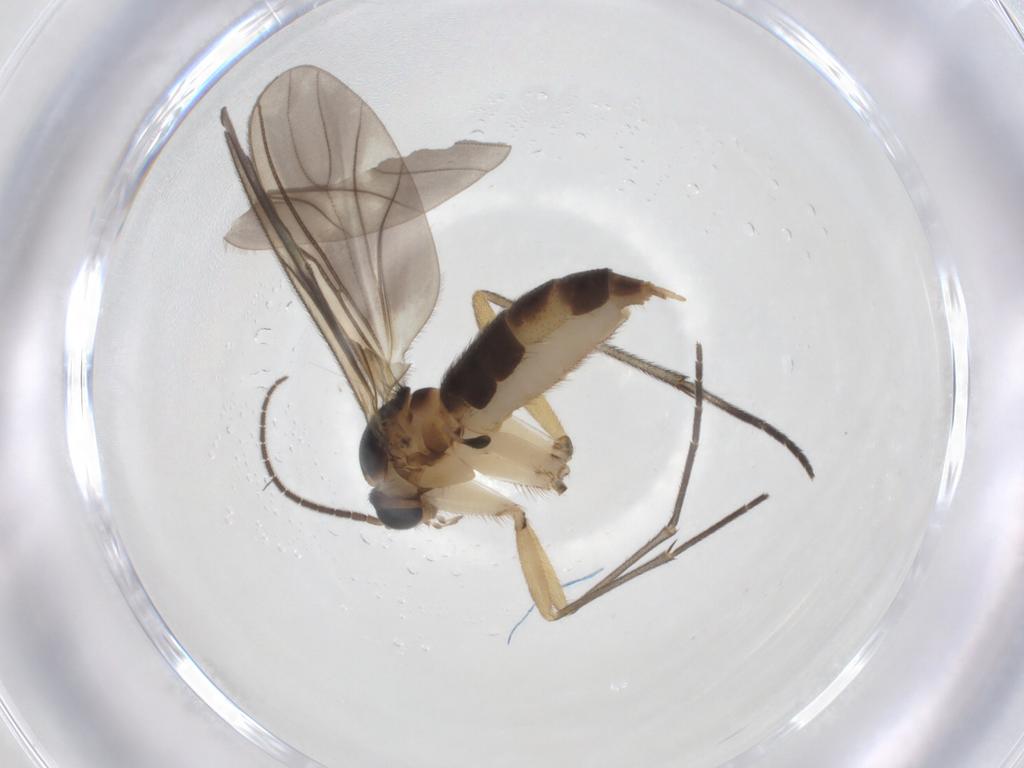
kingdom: Animalia
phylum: Arthropoda
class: Insecta
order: Diptera
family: Sciaridae
